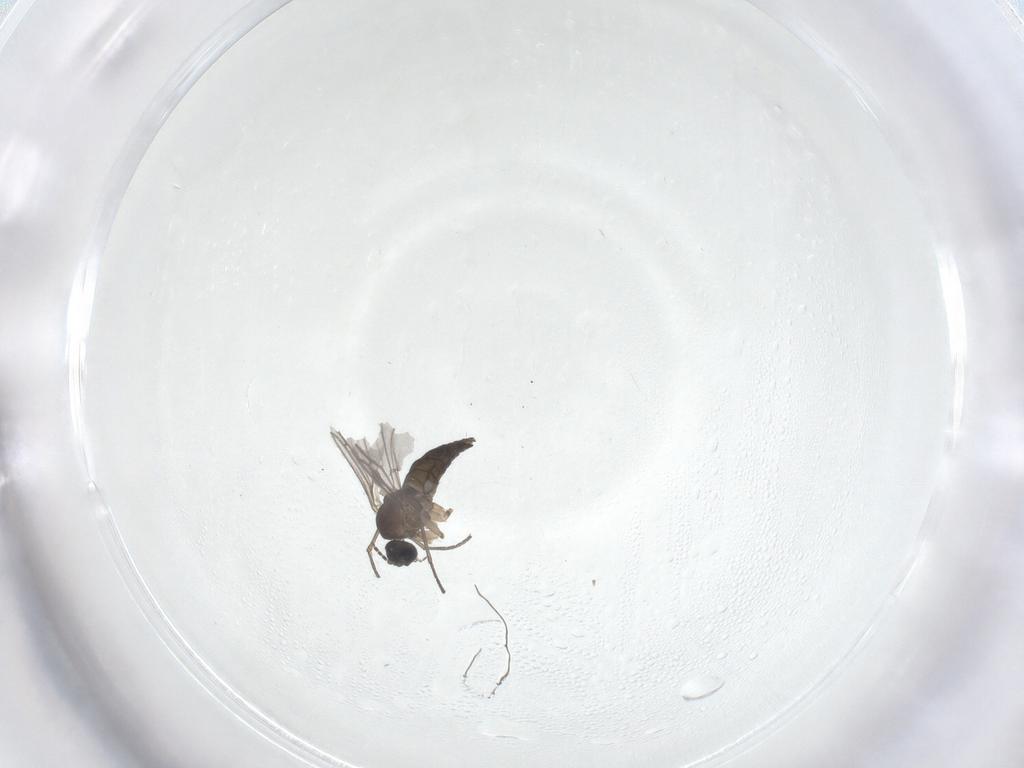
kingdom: Animalia
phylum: Arthropoda
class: Insecta
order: Diptera
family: Sciaridae
